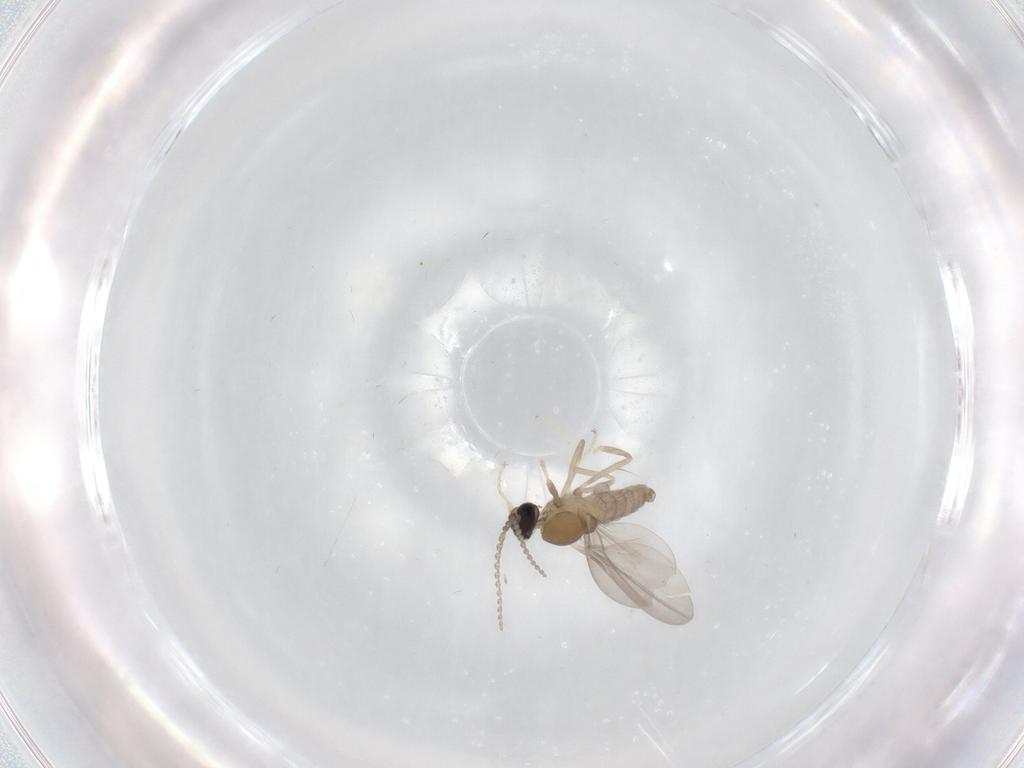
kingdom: Animalia
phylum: Arthropoda
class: Insecta
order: Diptera
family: Cecidomyiidae
